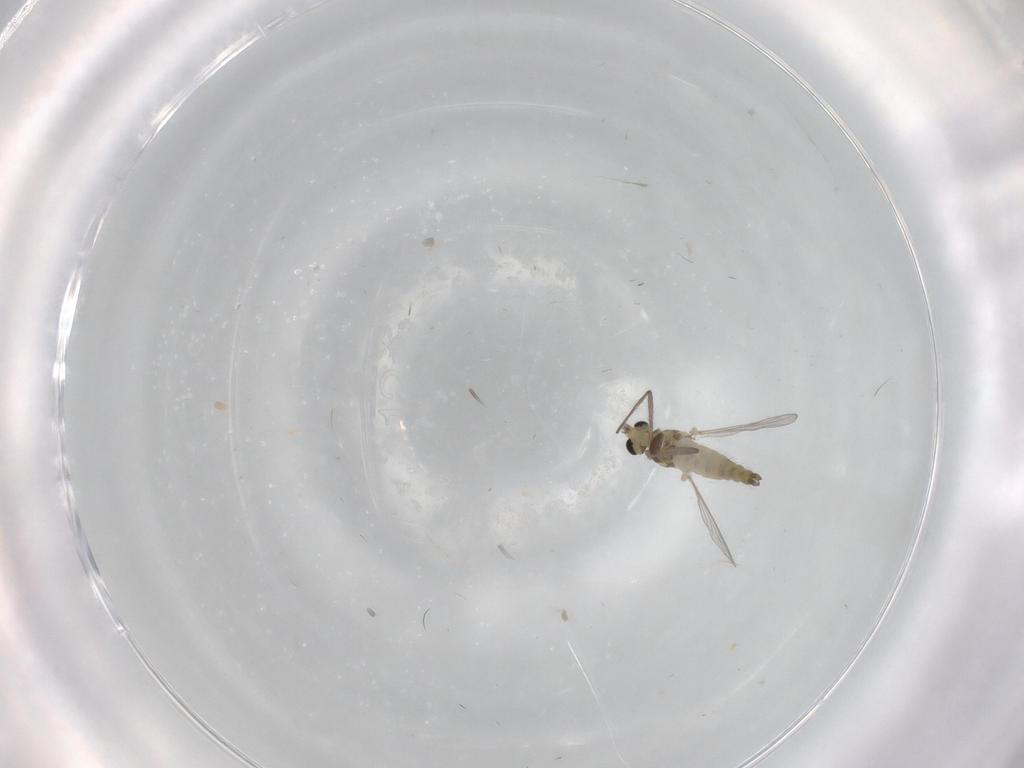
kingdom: Animalia
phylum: Arthropoda
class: Insecta
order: Diptera
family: Chironomidae
